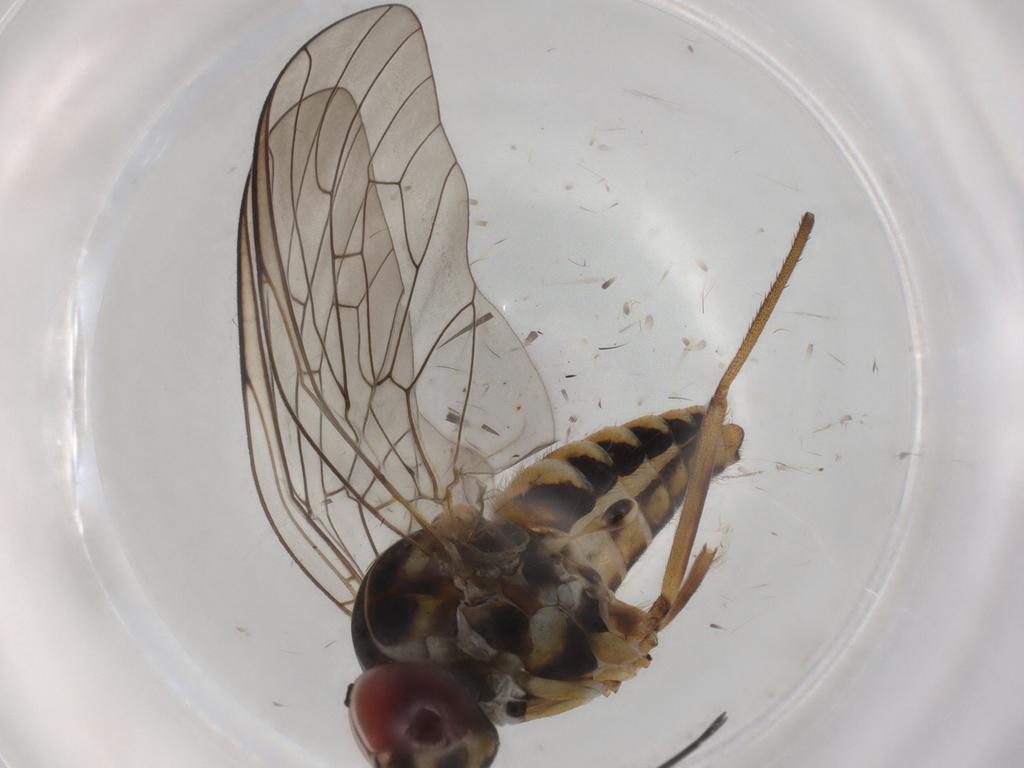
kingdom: Animalia
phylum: Arthropoda
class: Insecta
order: Diptera
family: Bombyliidae
